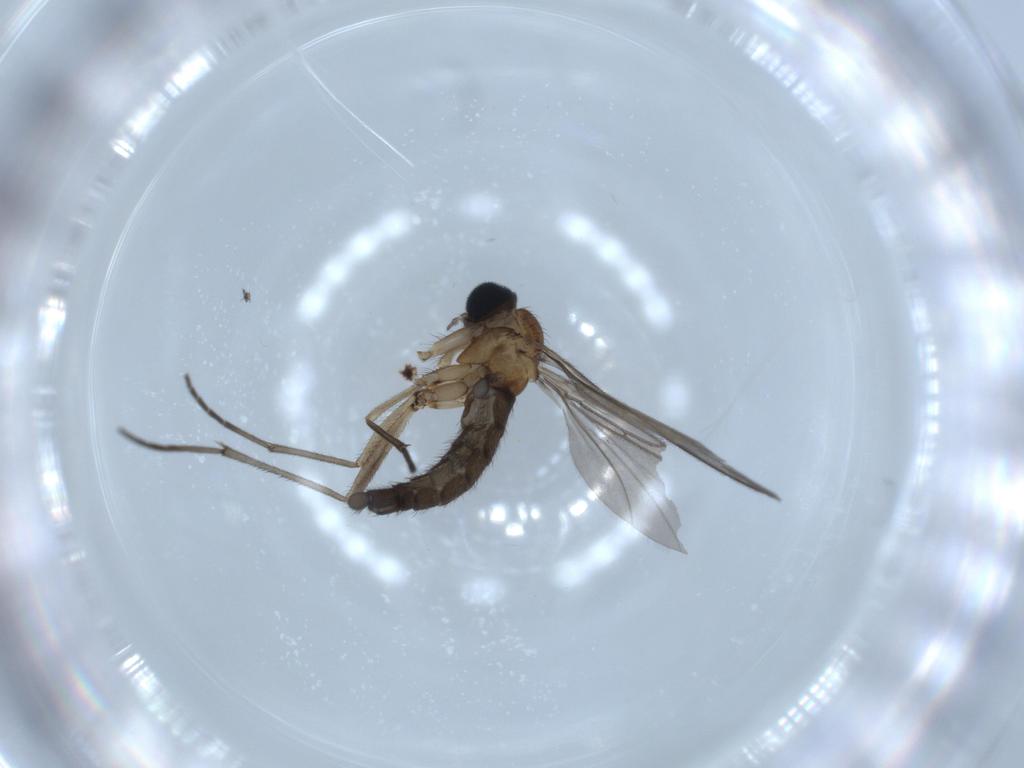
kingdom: Animalia
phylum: Arthropoda
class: Insecta
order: Diptera
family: Sciaridae
